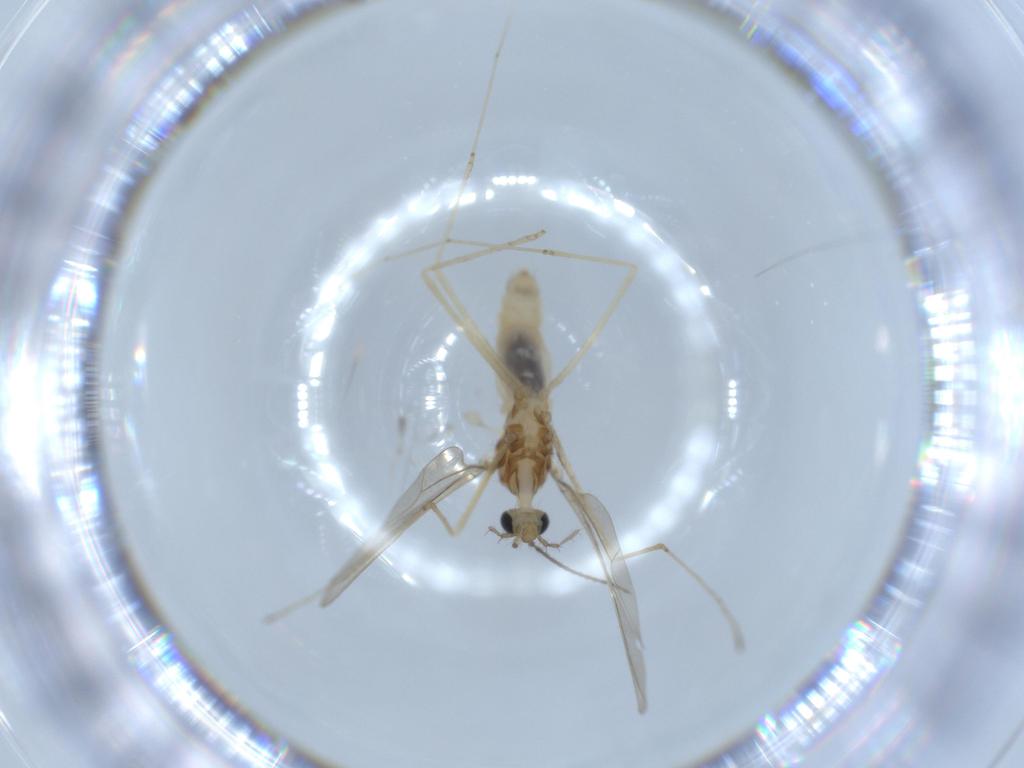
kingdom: Animalia
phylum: Arthropoda
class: Insecta
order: Diptera
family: Cecidomyiidae
